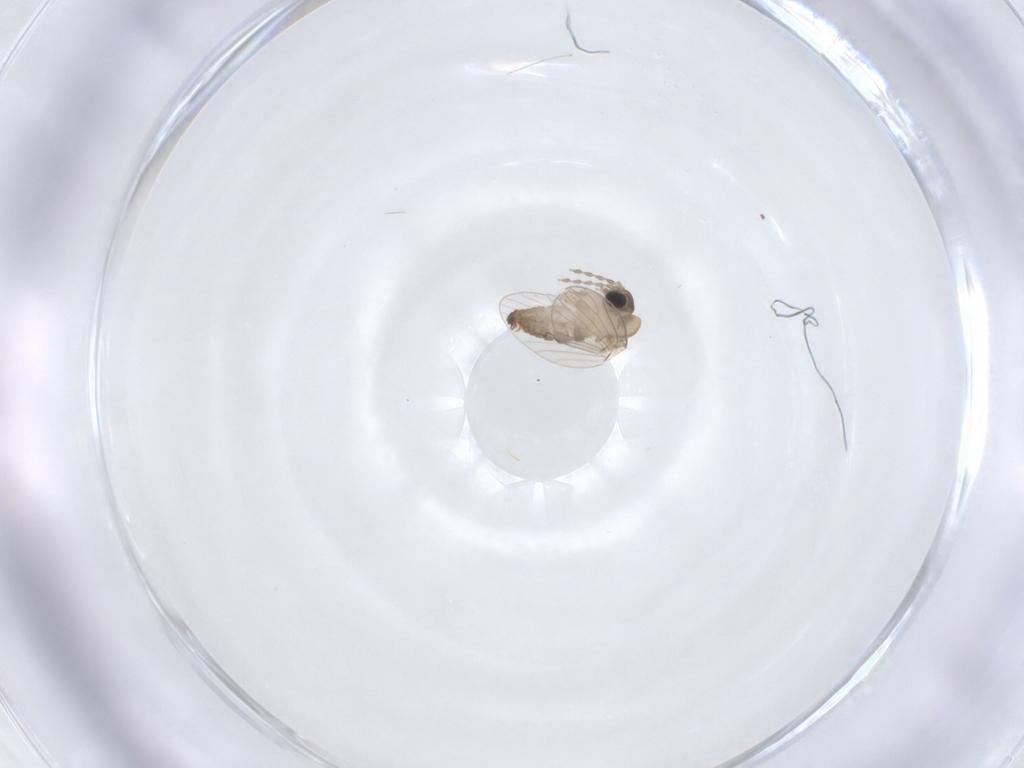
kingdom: Animalia
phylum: Arthropoda
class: Insecta
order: Diptera
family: Psychodidae
